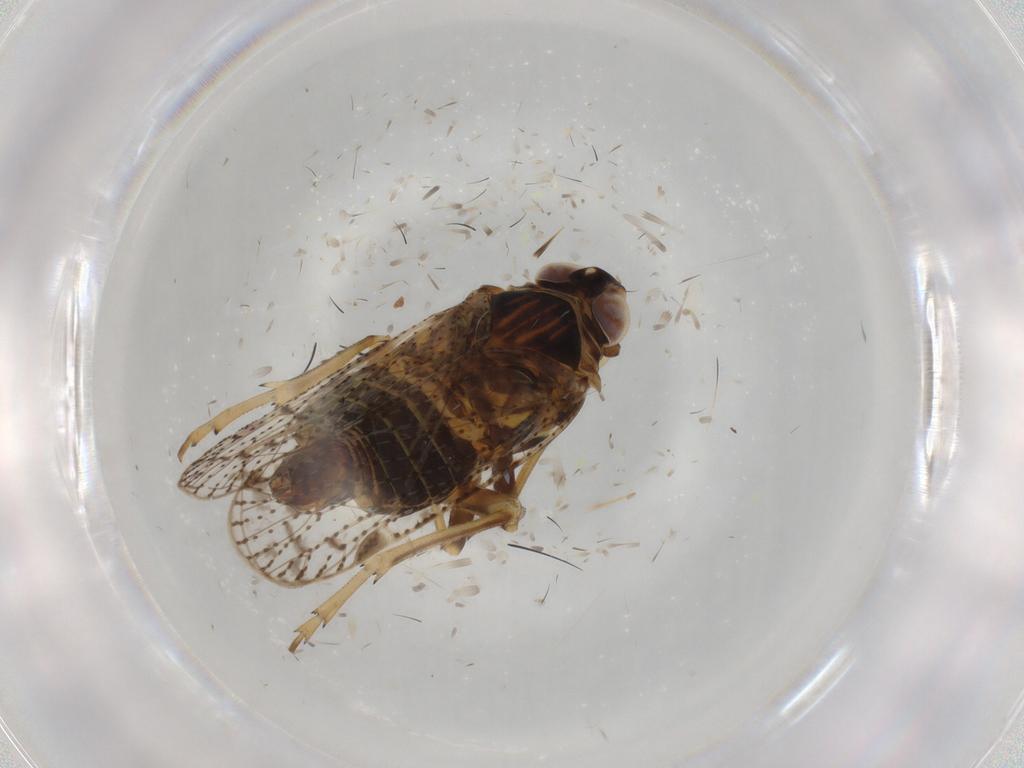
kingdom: Animalia
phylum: Arthropoda
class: Insecta
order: Hemiptera
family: Cixiidae
